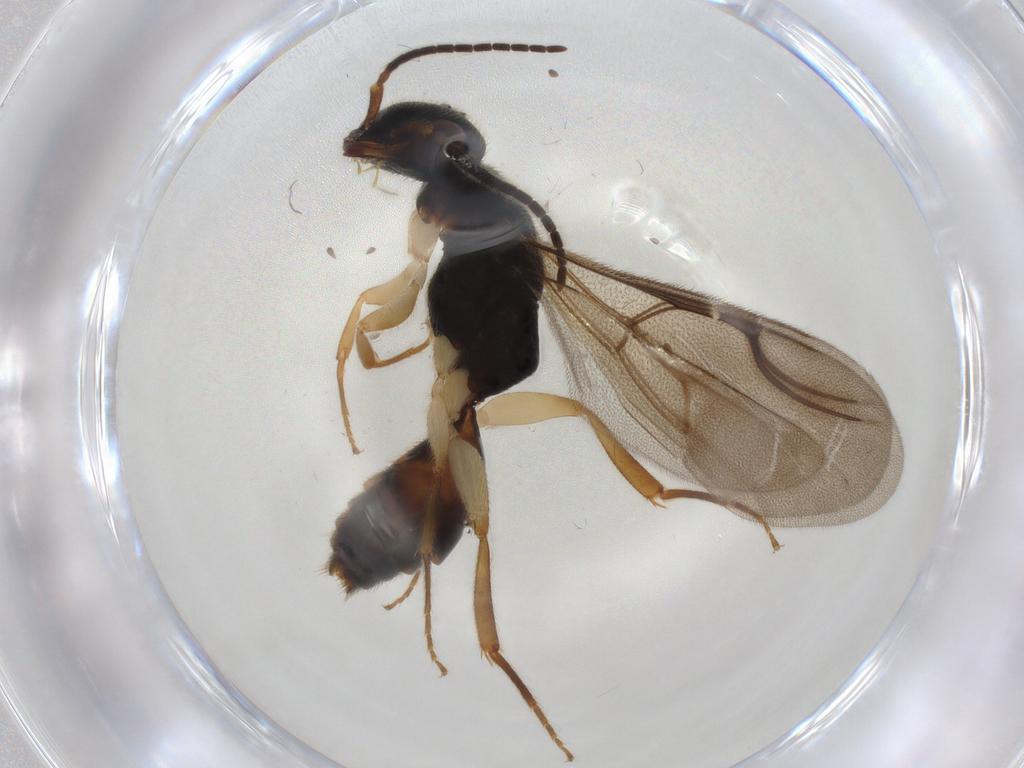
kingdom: Animalia
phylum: Arthropoda
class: Insecta
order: Hymenoptera
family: Bethylidae
